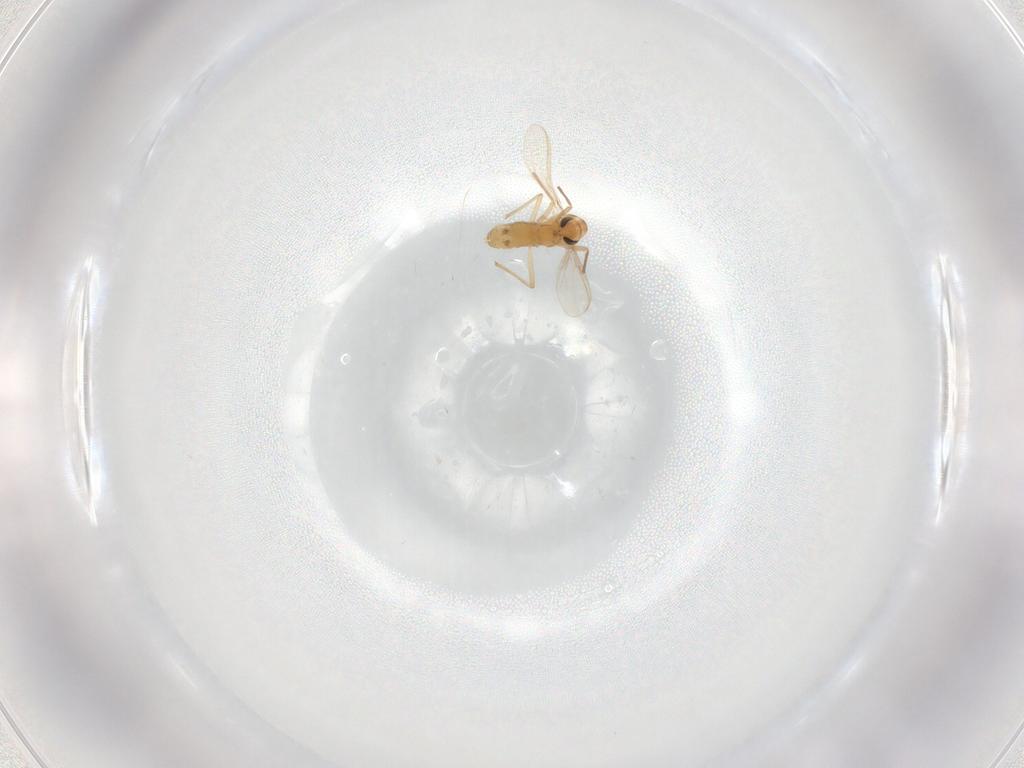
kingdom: Animalia
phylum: Arthropoda
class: Insecta
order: Diptera
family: Chironomidae
